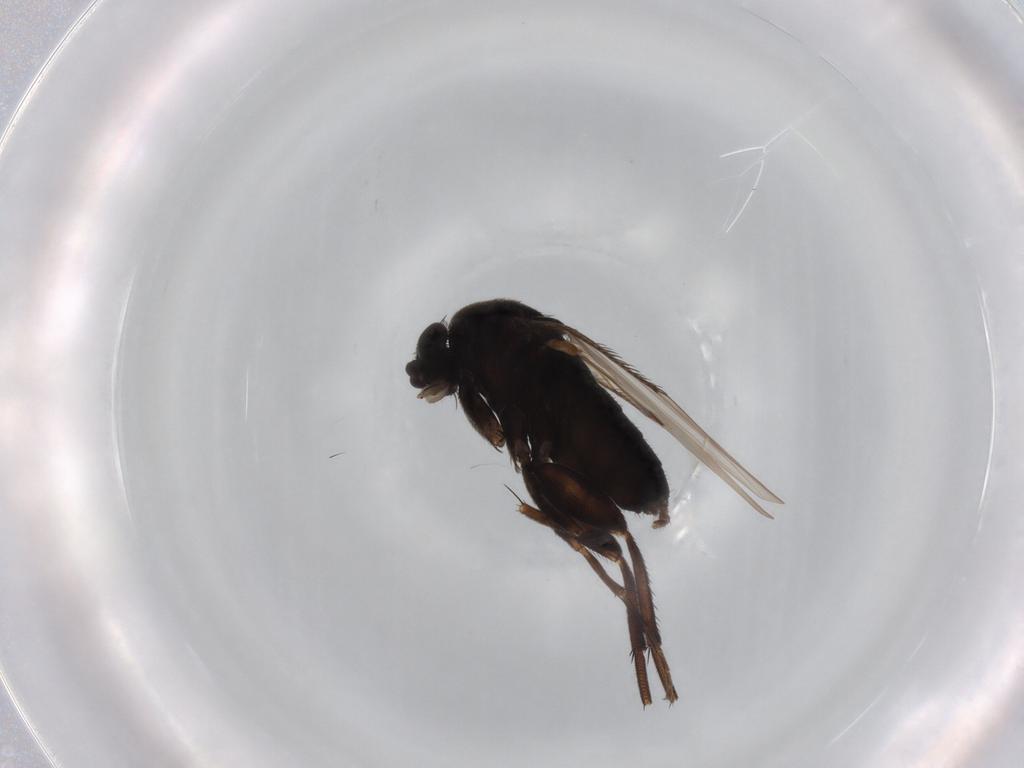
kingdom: Animalia
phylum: Arthropoda
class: Insecta
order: Diptera
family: Phoridae
